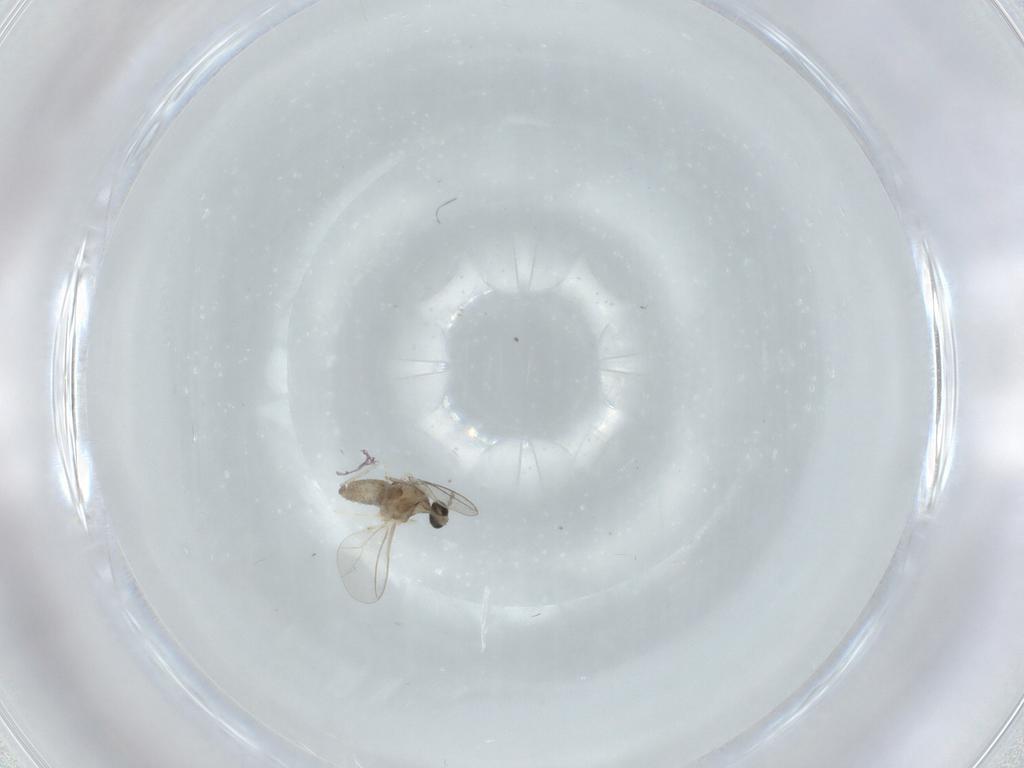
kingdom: Animalia
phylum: Arthropoda
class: Insecta
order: Diptera
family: Cecidomyiidae
